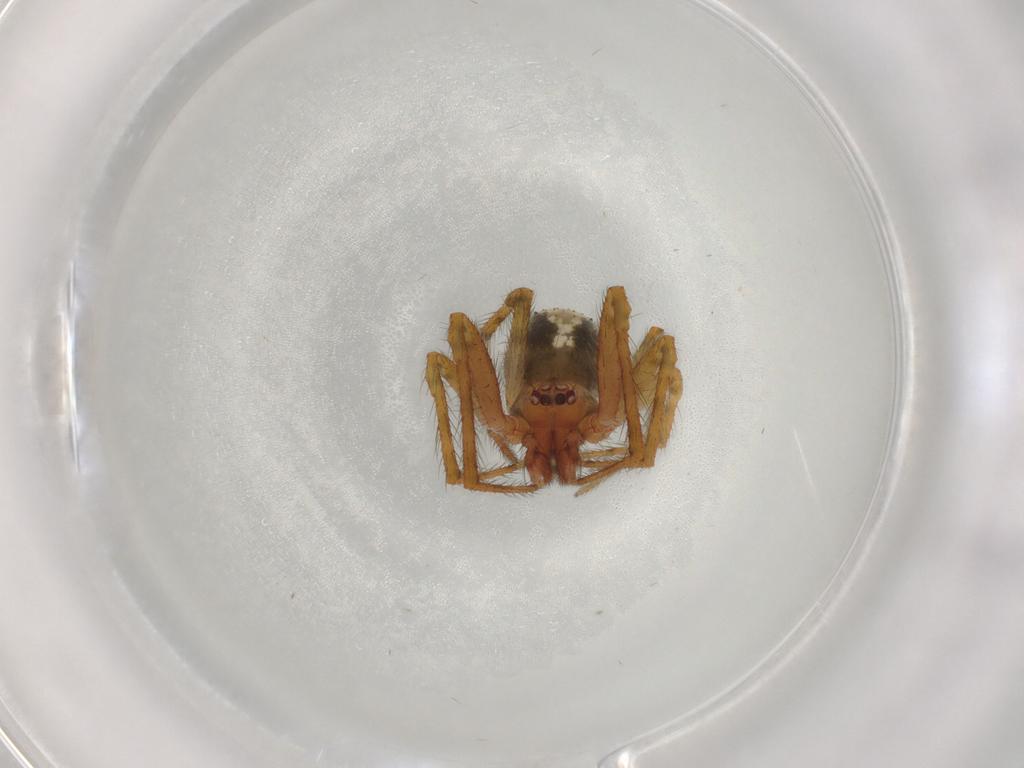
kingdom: Animalia
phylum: Arthropoda
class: Arachnida
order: Araneae
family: Theridiidae
